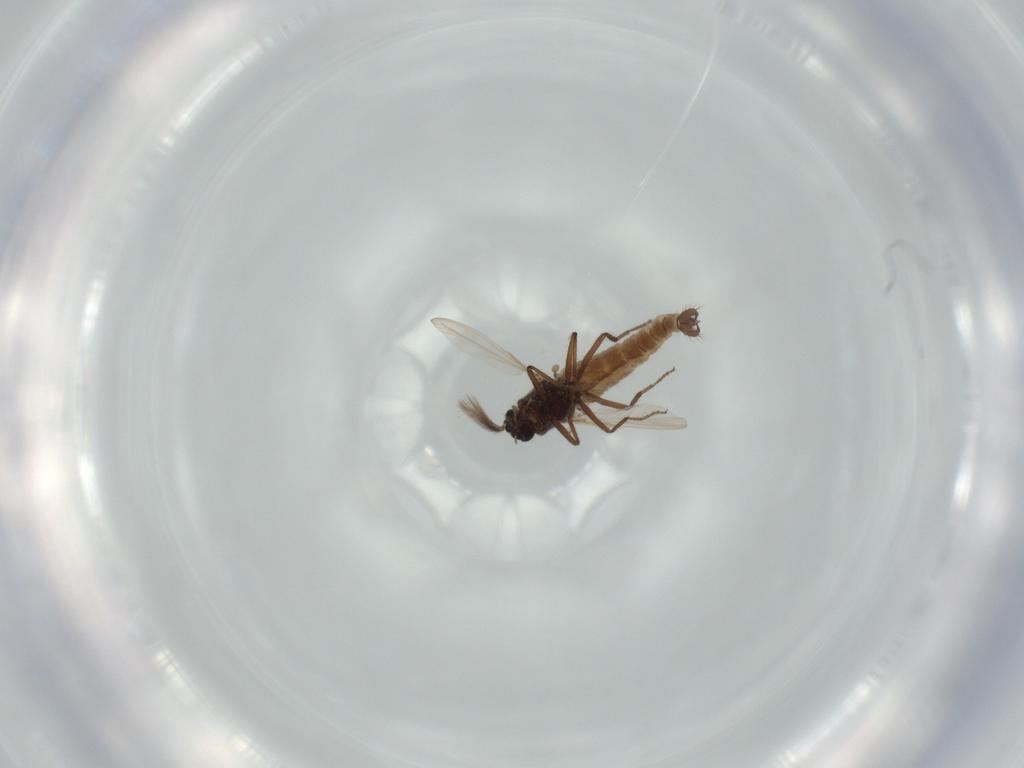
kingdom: Animalia
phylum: Arthropoda
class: Insecta
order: Diptera
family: Ceratopogonidae
